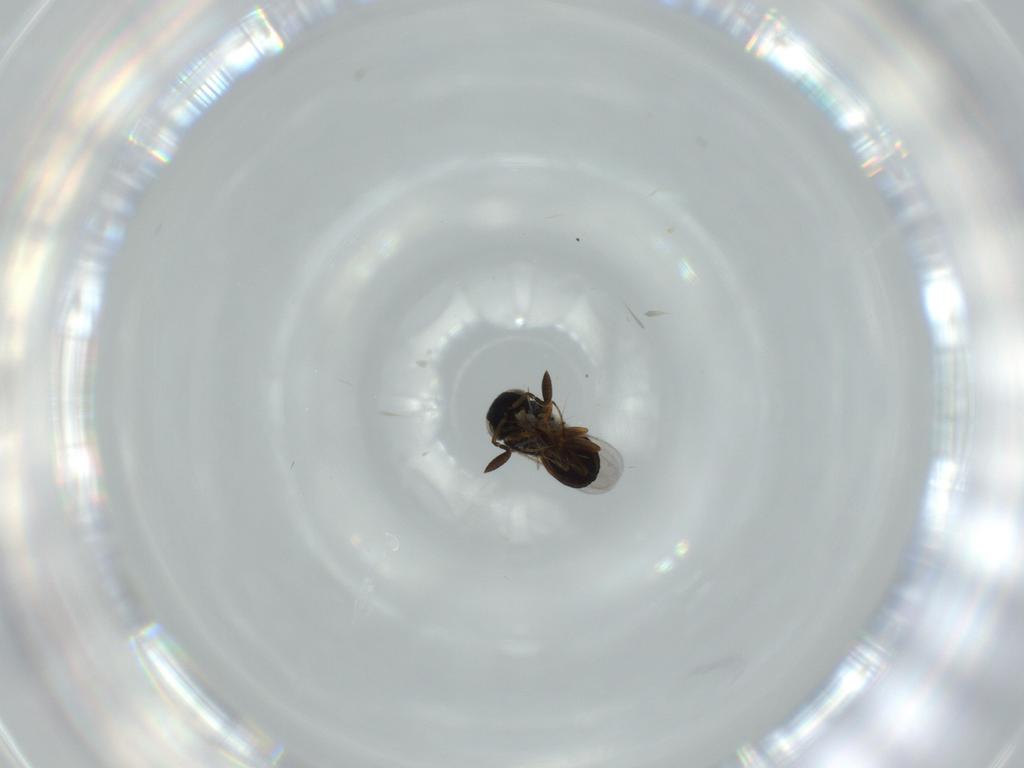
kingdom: Animalia
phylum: Arthropoda
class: Insecta
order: Coleoptera
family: Curculionidae
